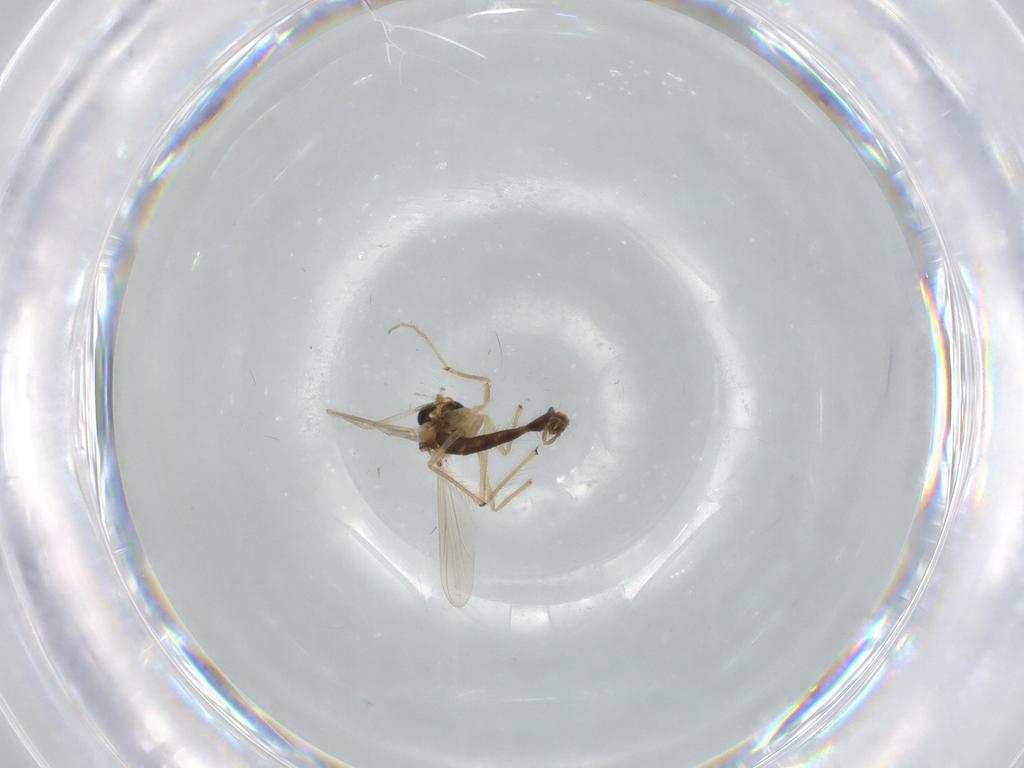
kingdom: Animalia
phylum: Arthropoda
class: Insecta
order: Diptera
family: Chironomidae
